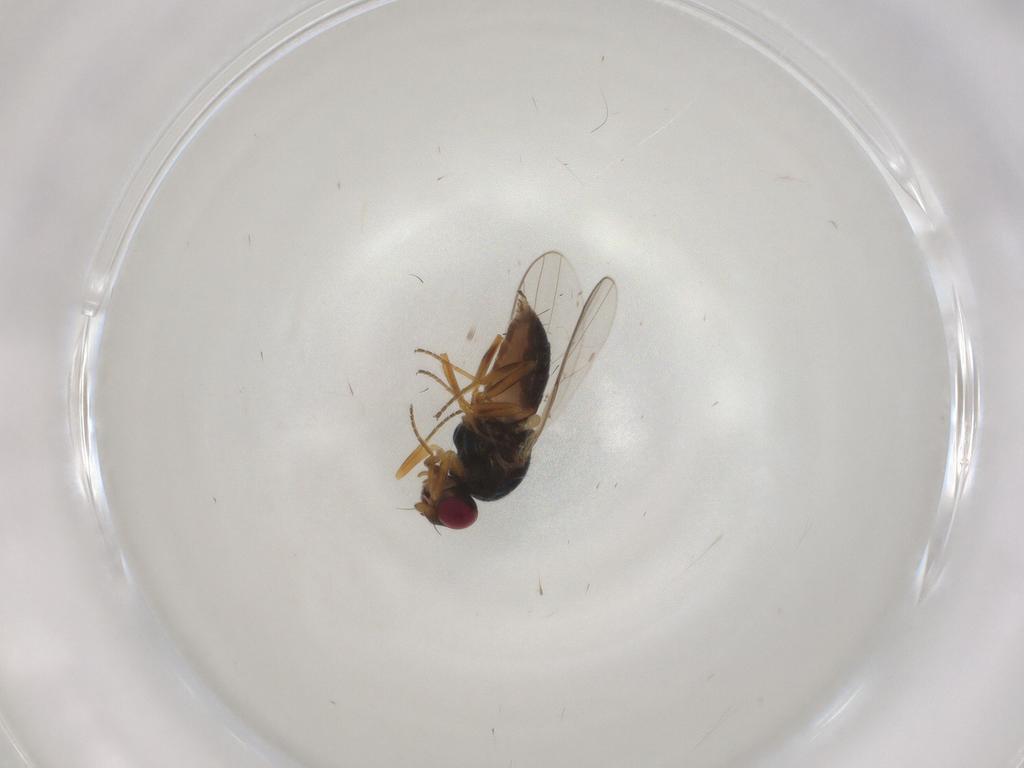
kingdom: Animalia
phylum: Arthropoda
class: Insecta
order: Diptera
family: Chloropidae
